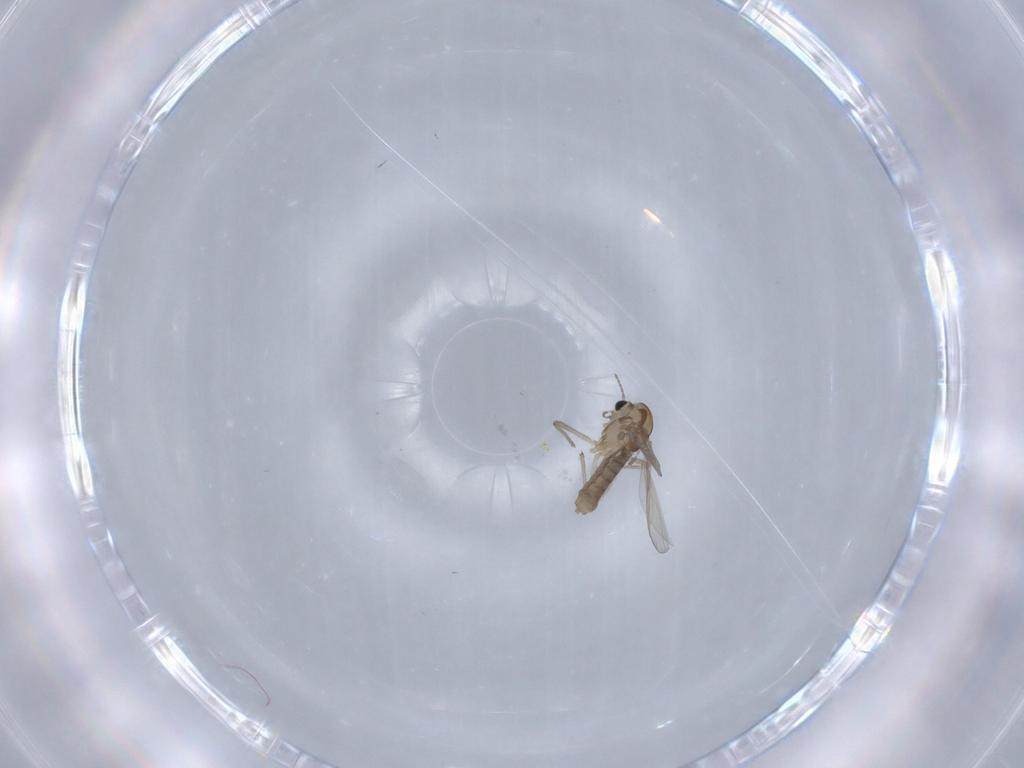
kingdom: Animalia
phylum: Arthropoda
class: Insecta
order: Diptera
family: Chironomidae
